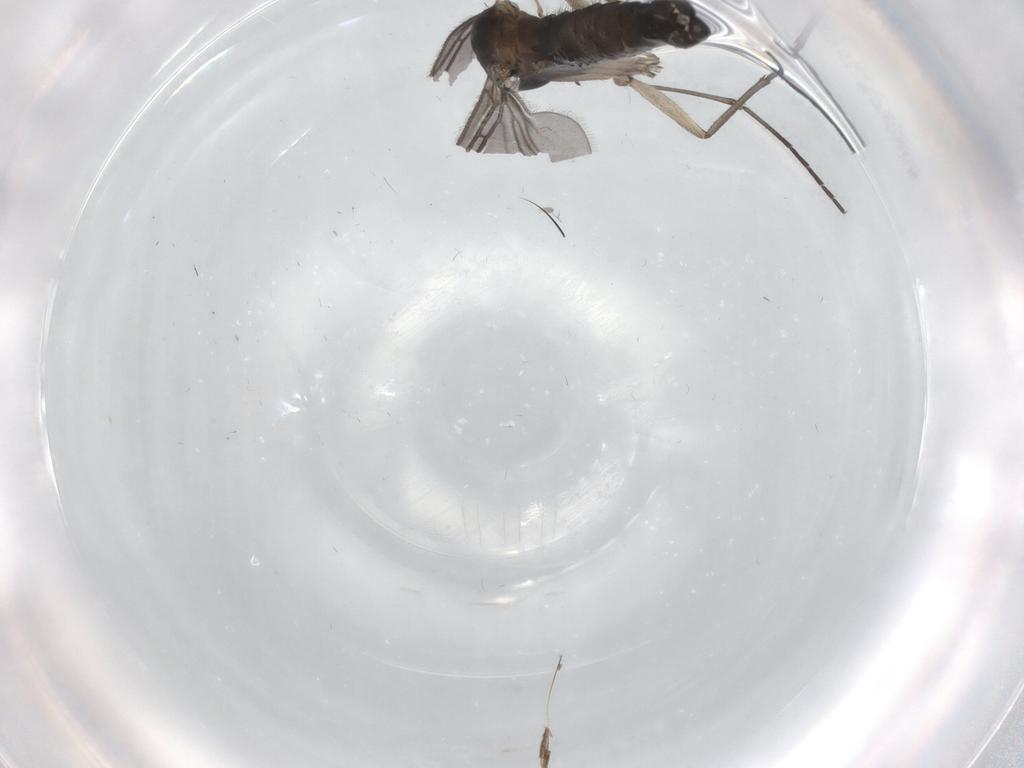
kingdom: Animalia
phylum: Arthropoda
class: Insecta
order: Diptera
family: Sciaridae
